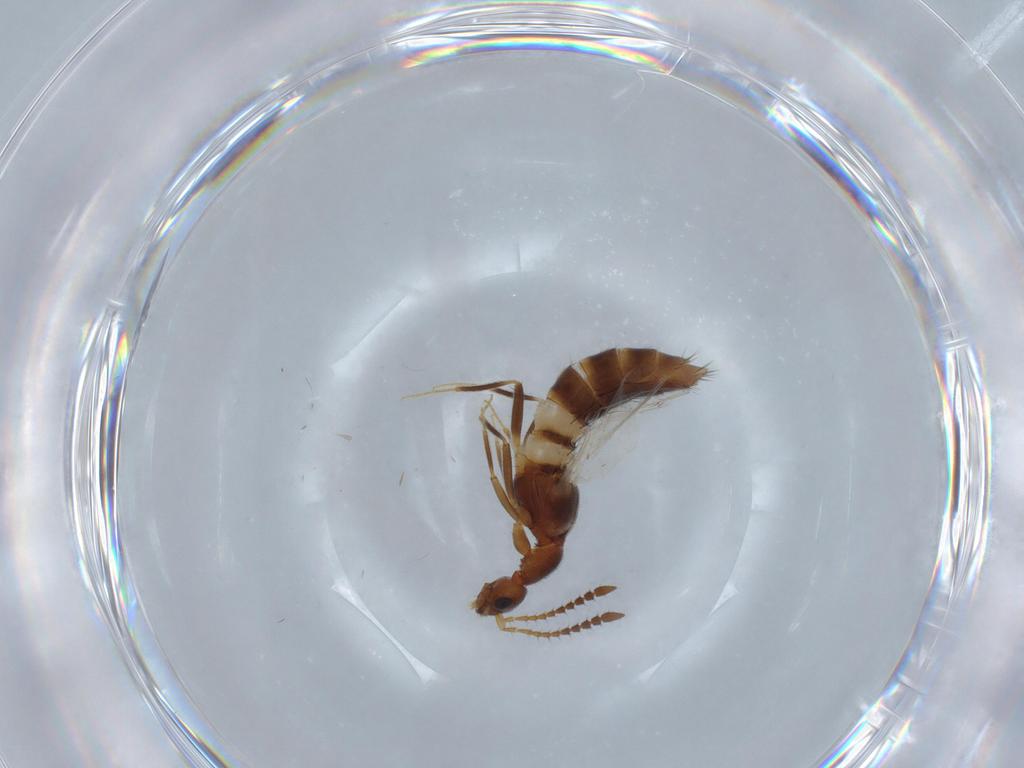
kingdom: Animalia
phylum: Arthropoda
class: Insecta
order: Coleoptera
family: Staphylinidae
